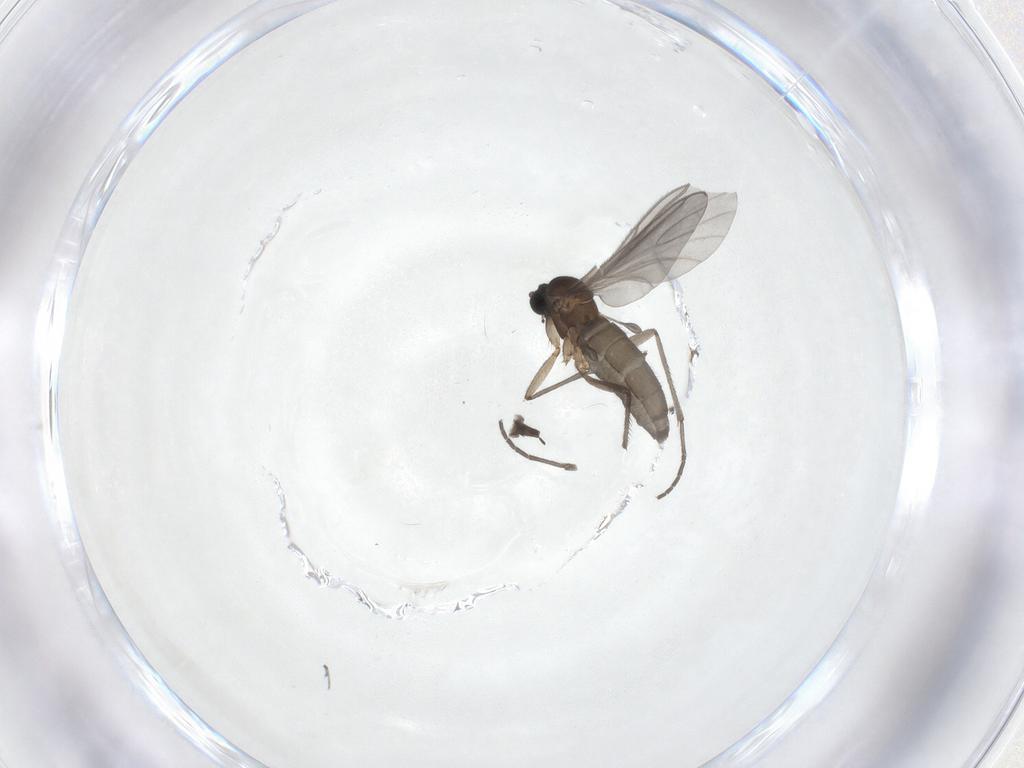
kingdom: Animalia
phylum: Arthropoda
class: Insecta
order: Diptera
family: Sciaridae
